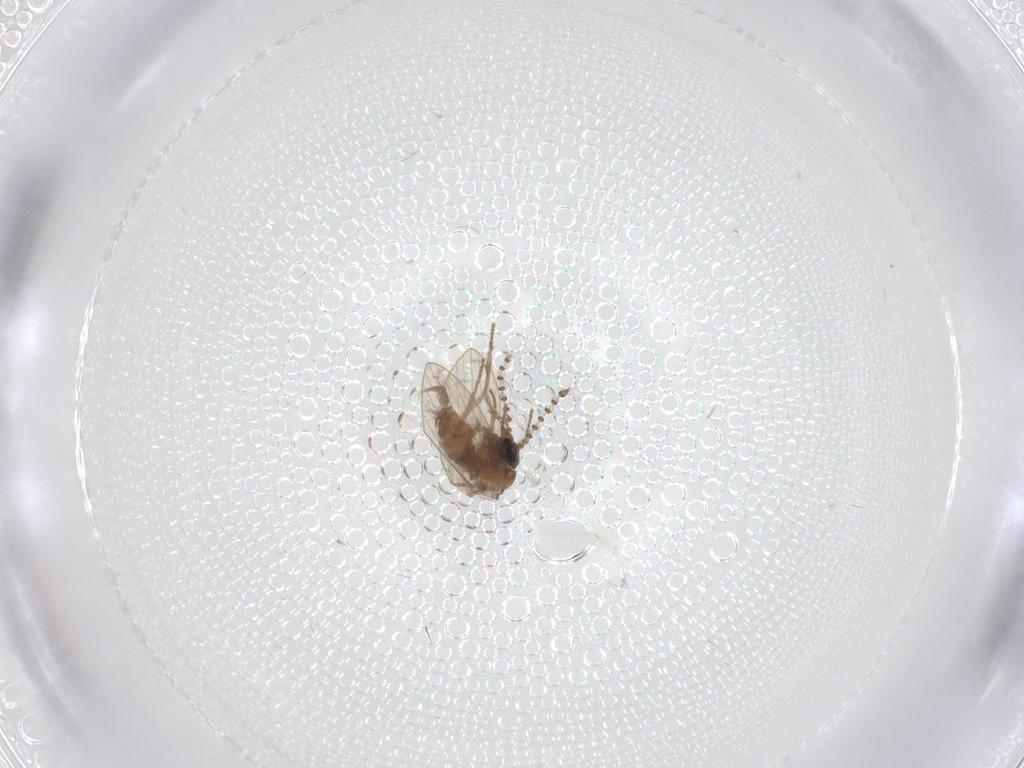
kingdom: Animalia
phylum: Arthropoda
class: Insecta
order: Diptera
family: Psychodidae
